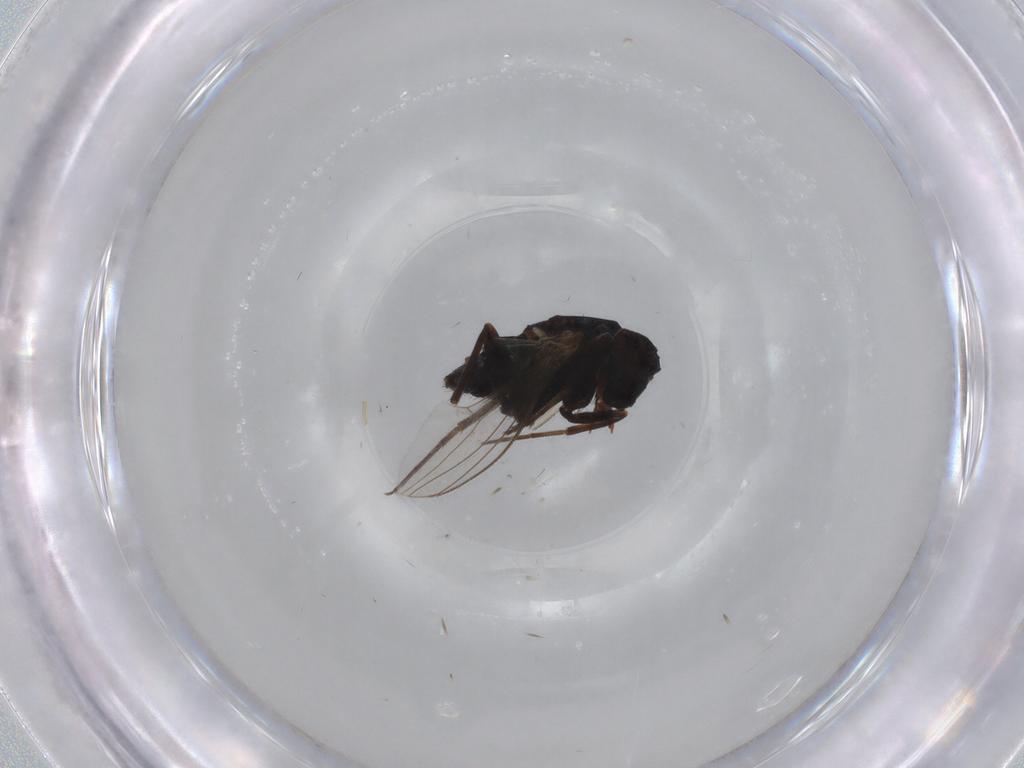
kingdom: Animalia
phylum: Arthropoda
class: Insecta
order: Diptera
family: Dolichopodidae
